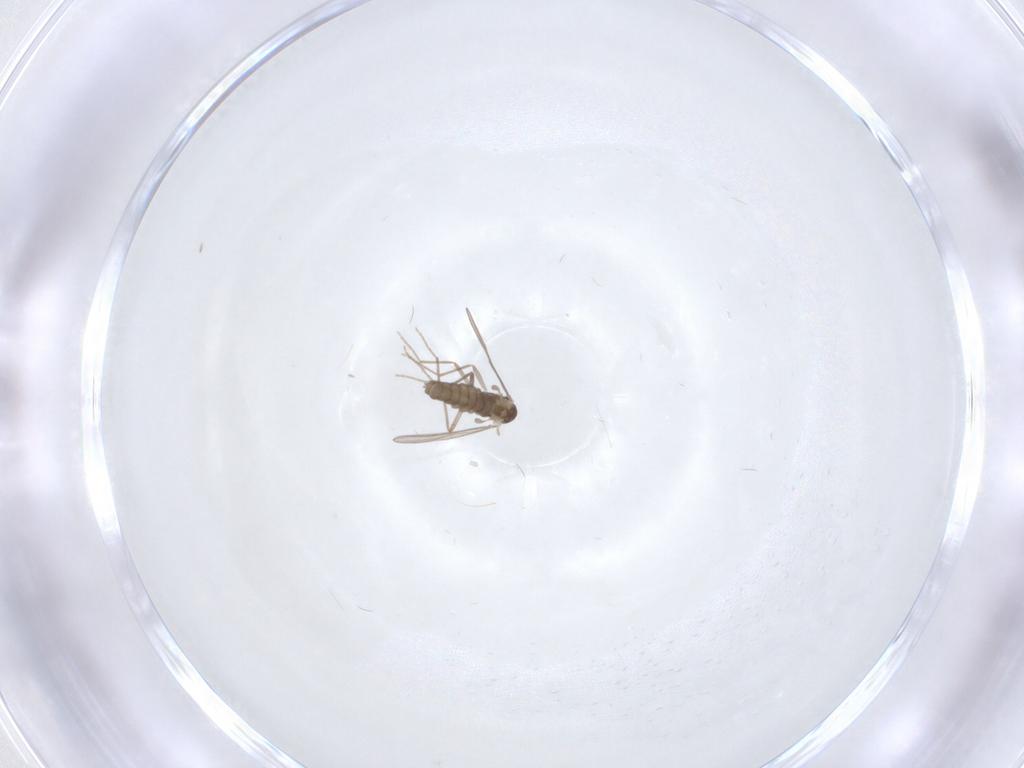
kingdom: Animalia
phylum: Arthropoda
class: Insecta
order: Diptera
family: Chironomidae
